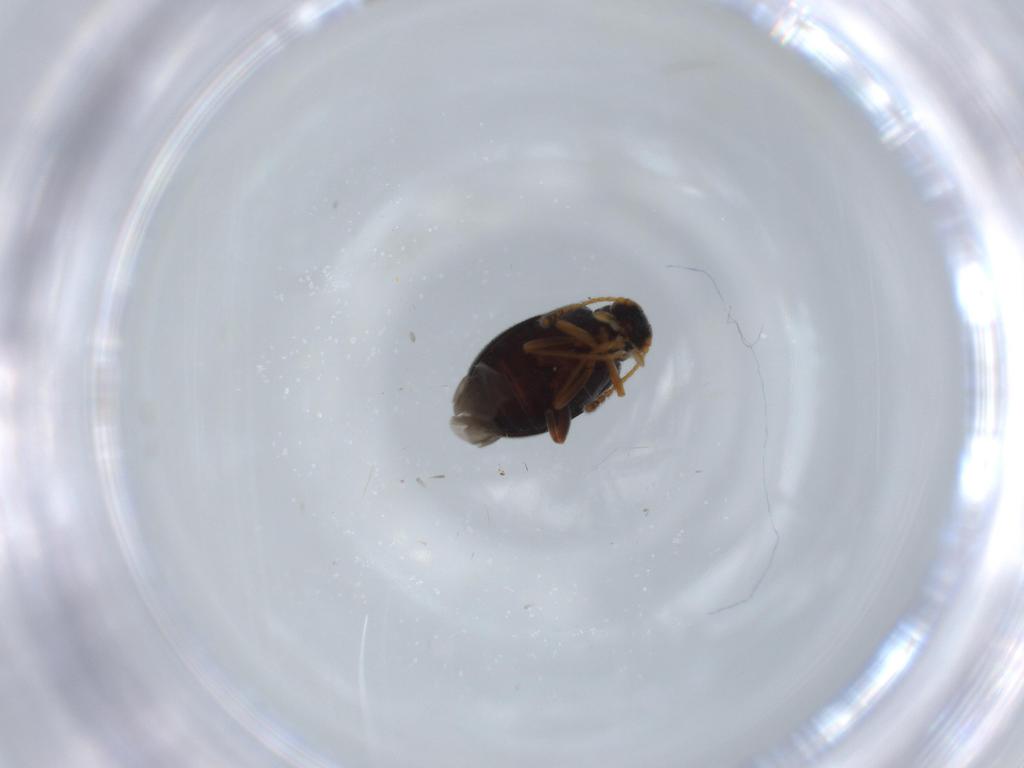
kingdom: Animalia
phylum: Arthropoda
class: Insecta
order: Coleoptera
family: Aderidae
